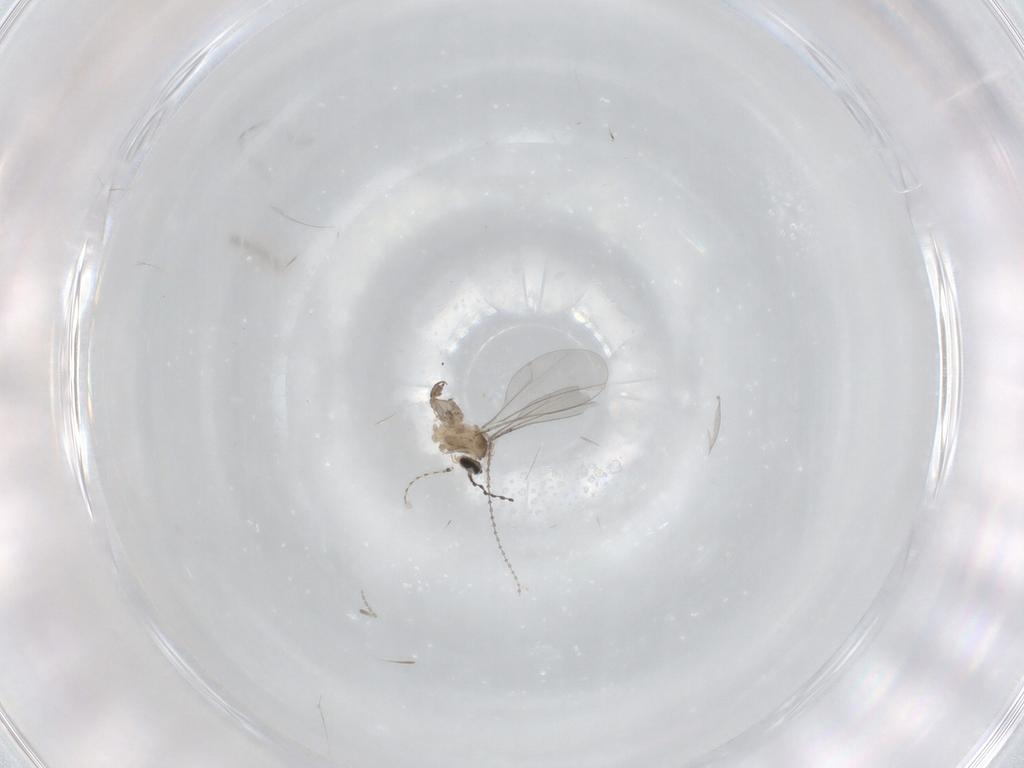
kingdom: Animalia
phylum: Arthropoda
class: Insecta
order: Diptera
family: Cecidomyiidae
